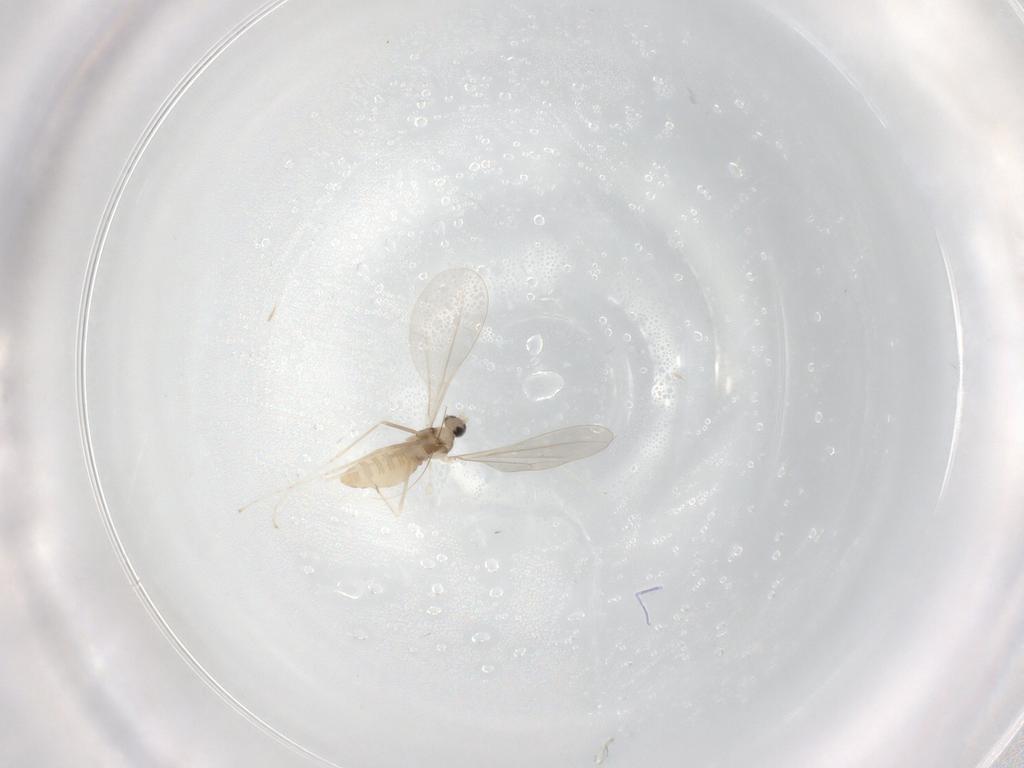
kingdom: Animalia
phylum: Arthropoda
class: Insecta
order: Diptera
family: Cecidomyiidae
